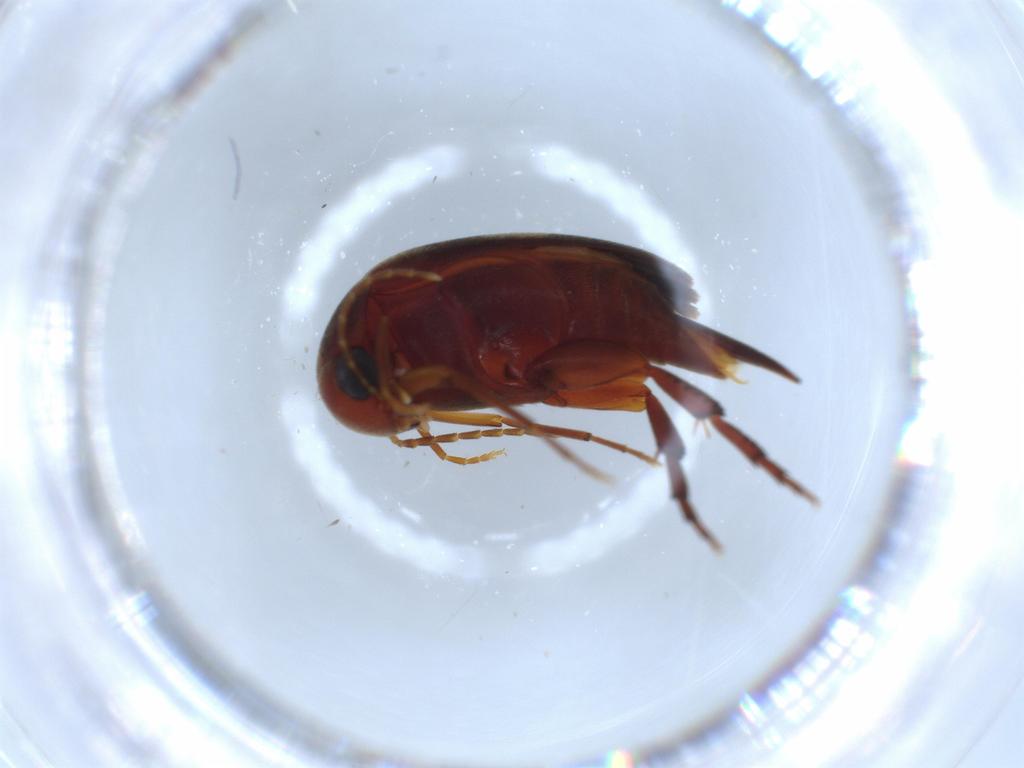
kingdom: Animalia
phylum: Arthropoda
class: Insecta
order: Coleoptera
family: Mordellidae
